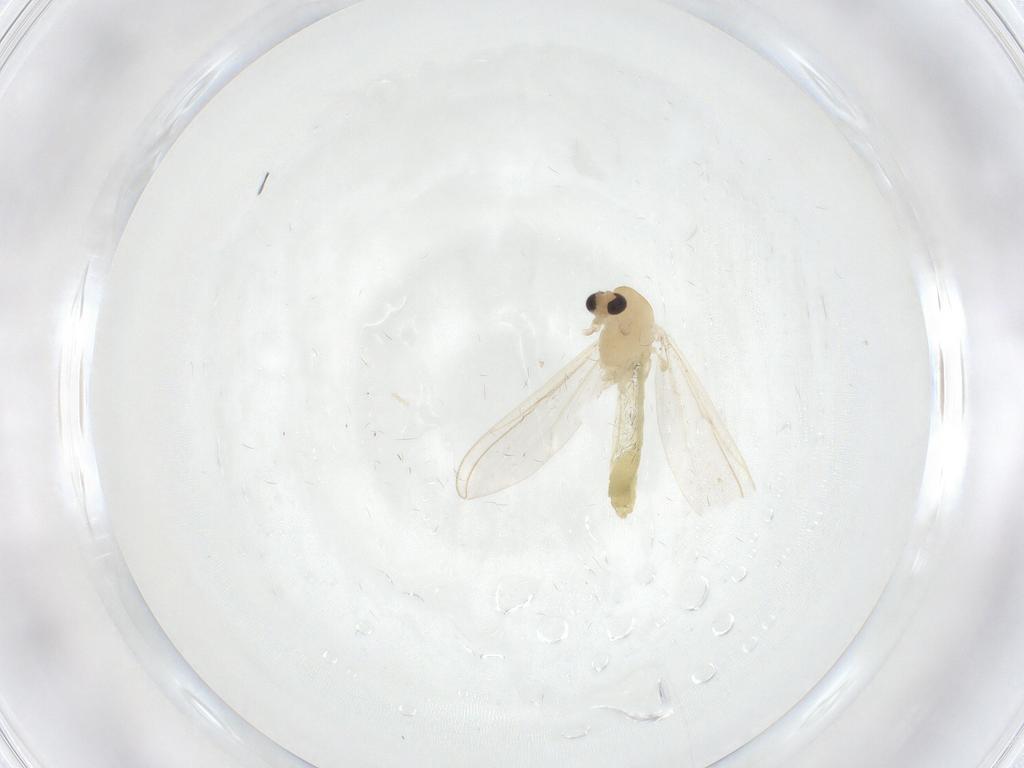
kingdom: Animalia
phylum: Arthropoda
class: Insecta
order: Diptera
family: Chironomidae
